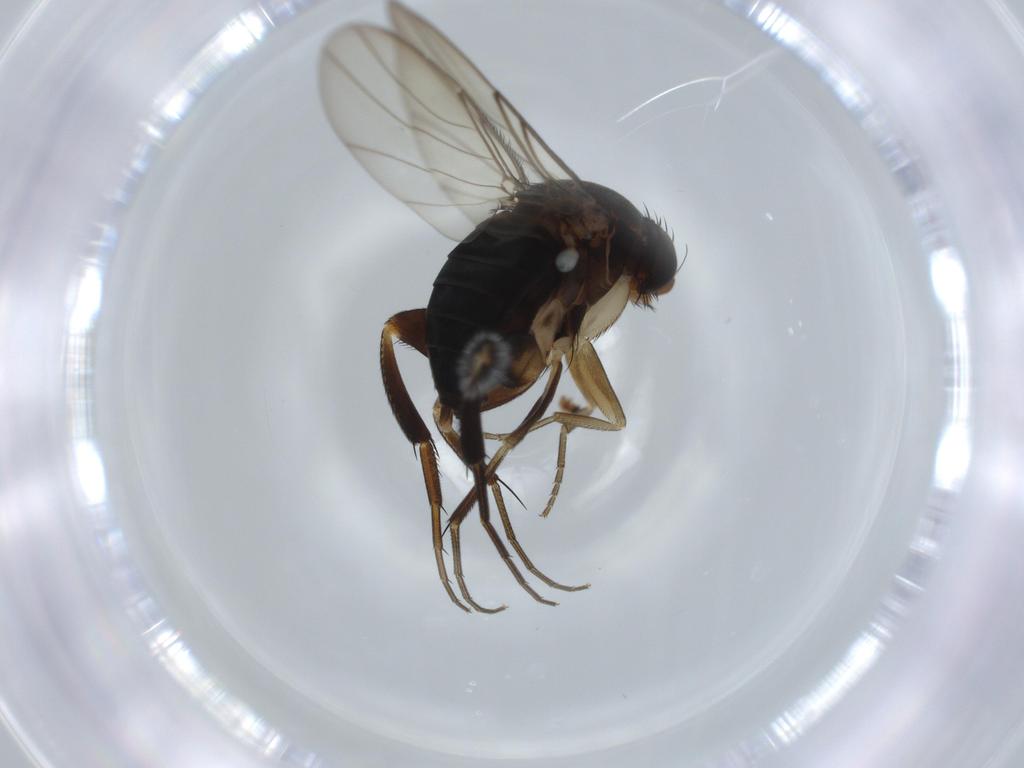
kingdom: Animalia
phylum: Arthropoda
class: Insecta
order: Diptera
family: Phoridae
